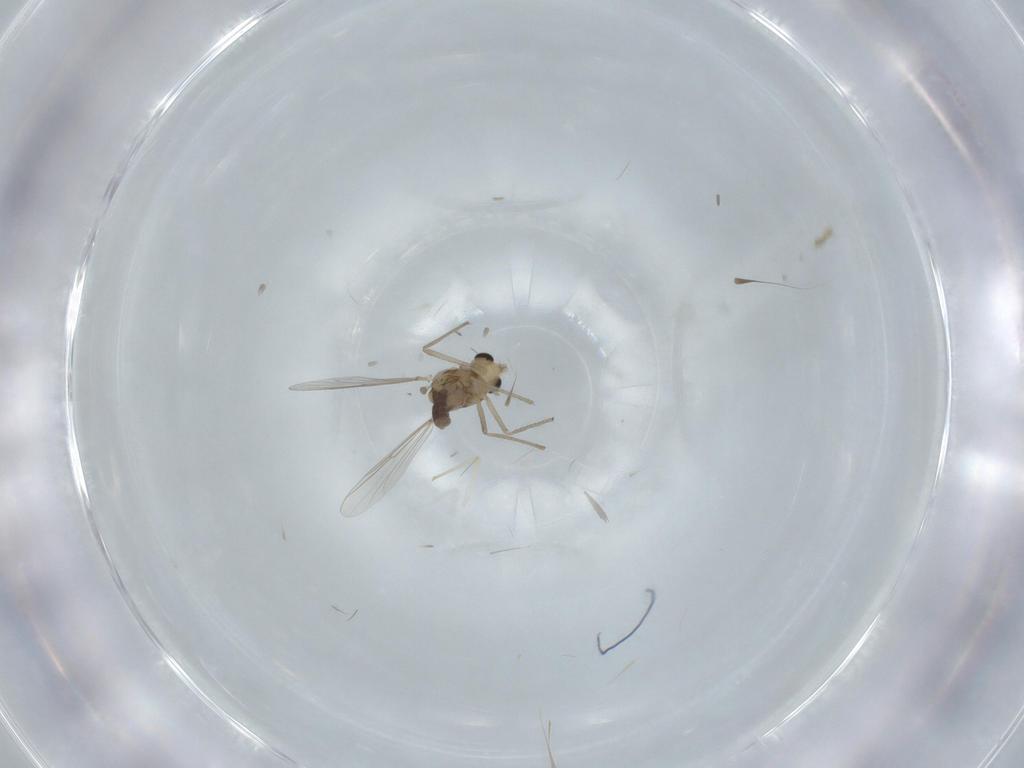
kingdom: Animalia
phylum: Arthropoda
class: Insecta
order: Diptera
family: Chironomidae
